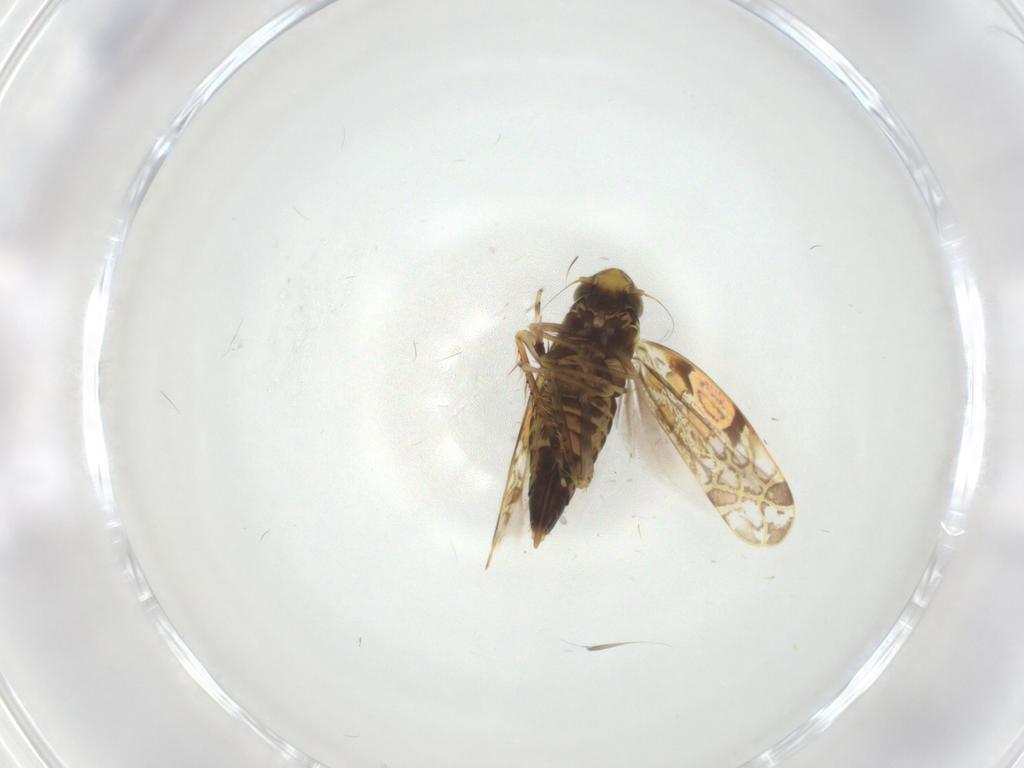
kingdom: Animalia
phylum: Arthropoda
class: Insecta
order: Hemiptera
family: Cicadellidae
